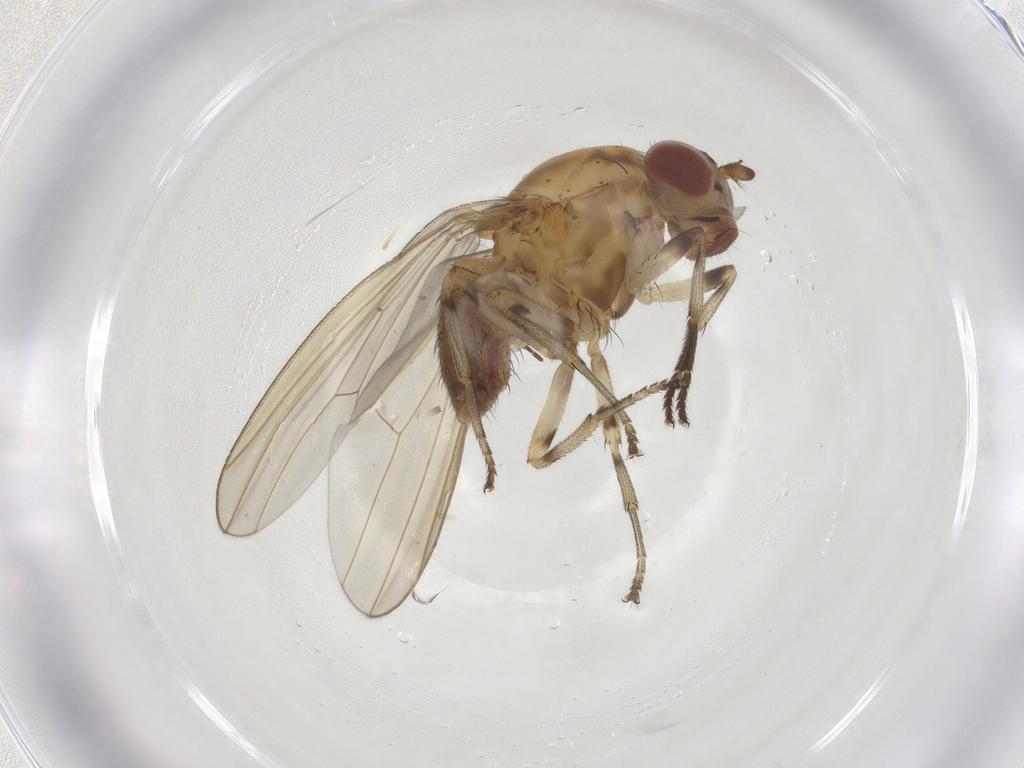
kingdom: Animalia
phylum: Arthropoda
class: Insecta
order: Diptera
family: Lauxaniidae
